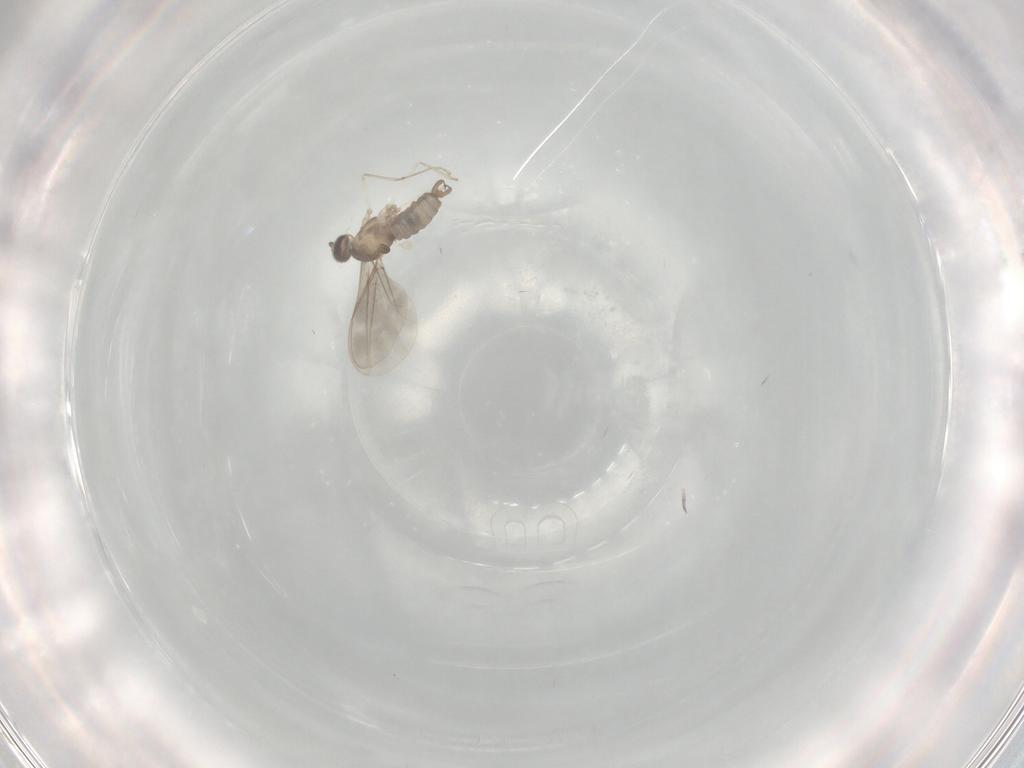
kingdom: Animalia
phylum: Arthropoda
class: Insecta
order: Diptera
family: Cecidomyiidae
